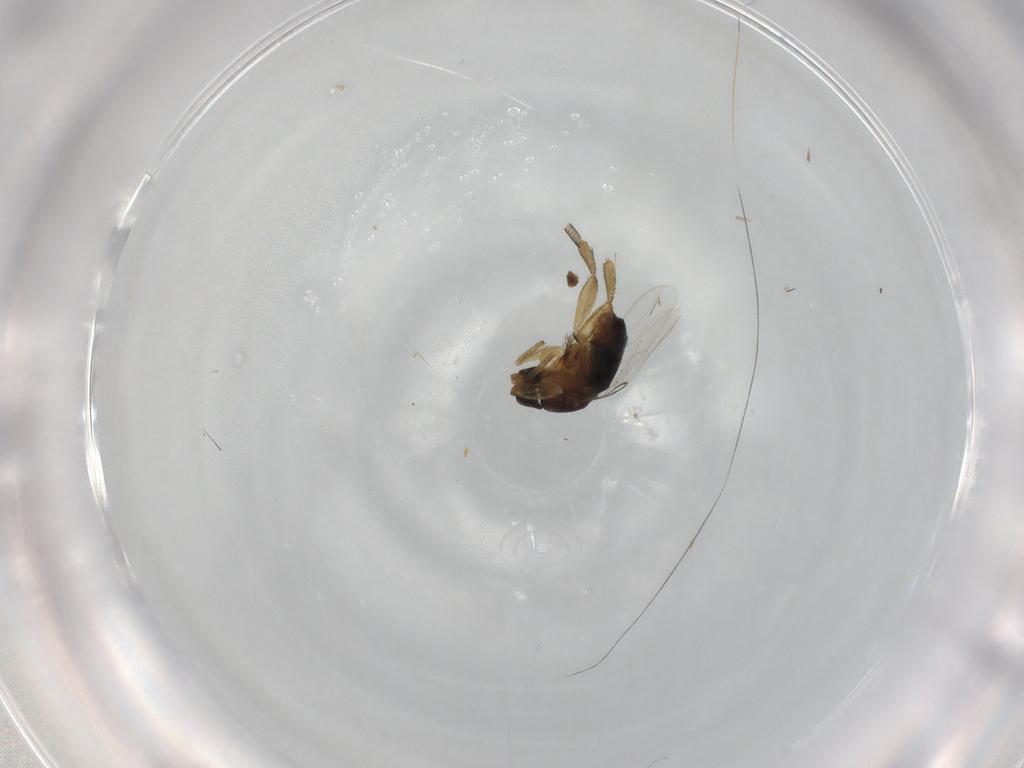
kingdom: Animalia
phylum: Arthropoda
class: Insecta
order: Diptera
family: Phoridae
